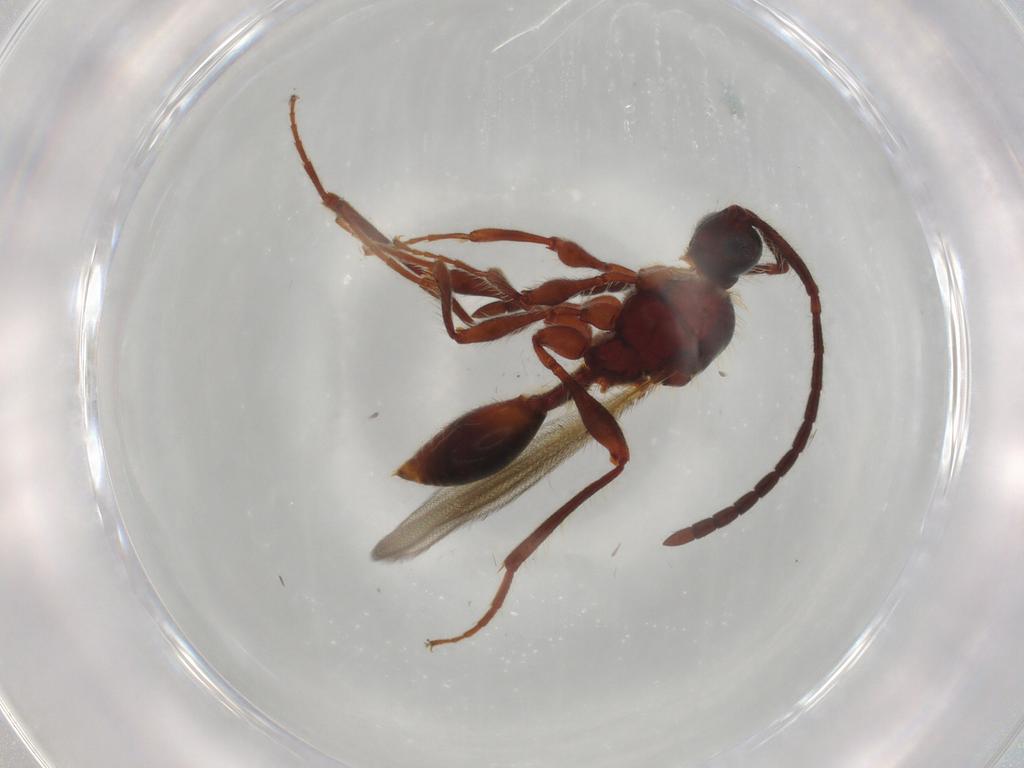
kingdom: Animalia
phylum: Arthropoda
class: Insecta
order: Hymenoptera
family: Diapriidae
